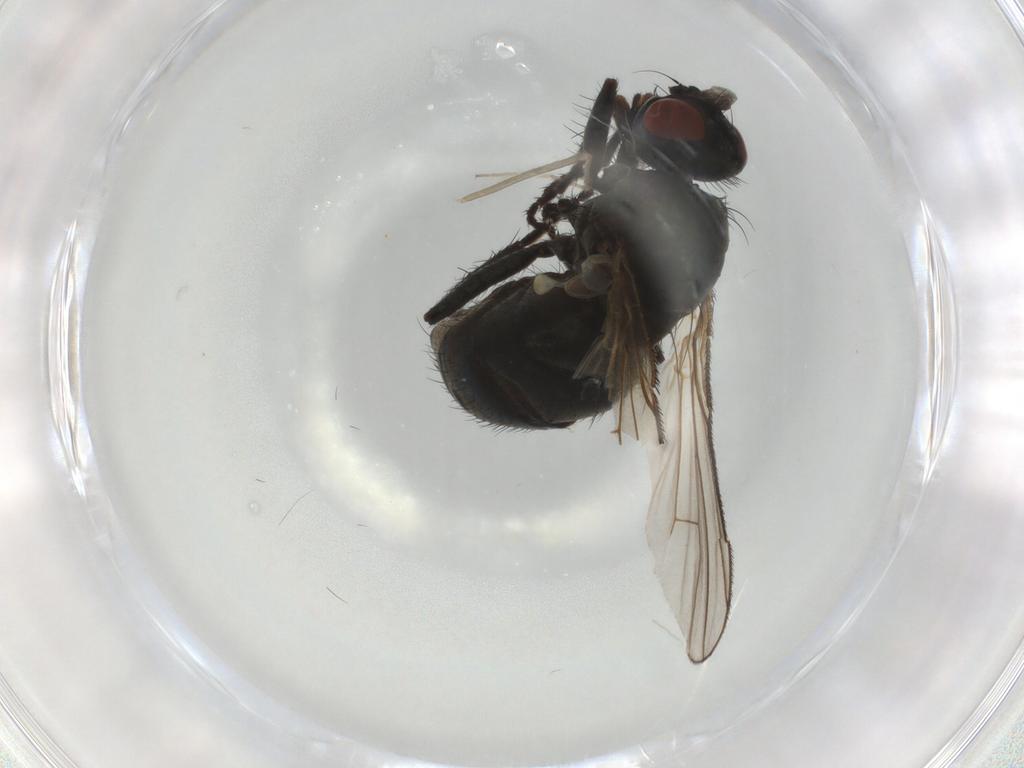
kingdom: Animalia
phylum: Arthropoda
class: Insecta
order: Diptera
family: Muscidae
